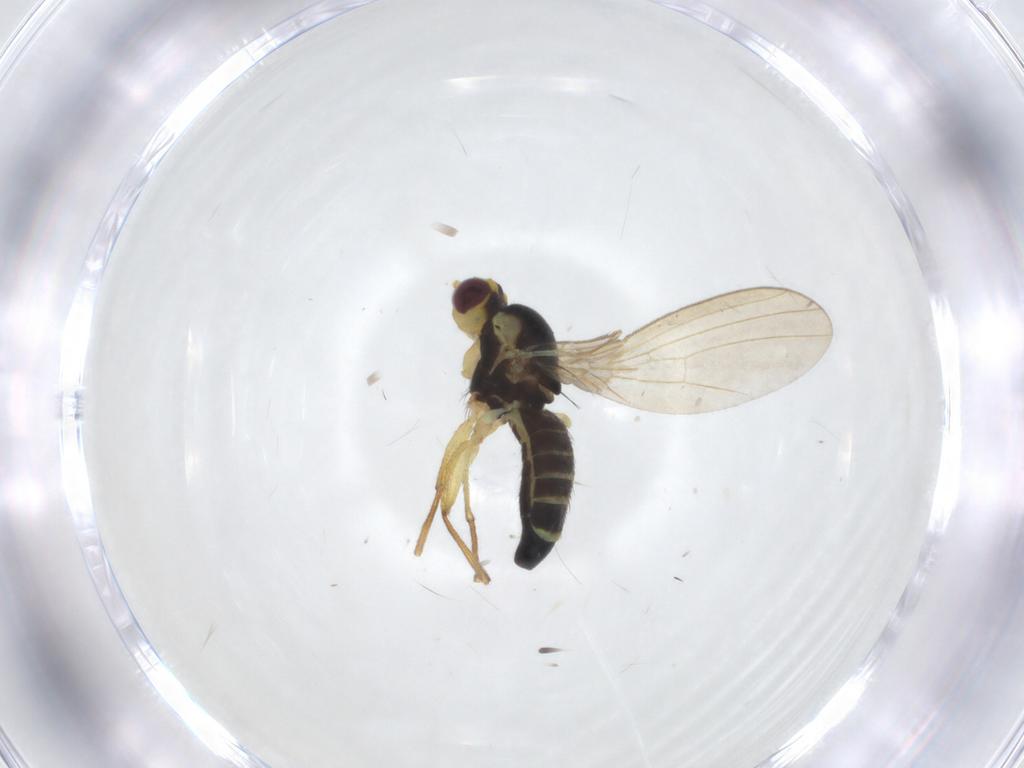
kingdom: Animalia
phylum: Arthropoda
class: Insecta
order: Diptera
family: Agromyzidae
